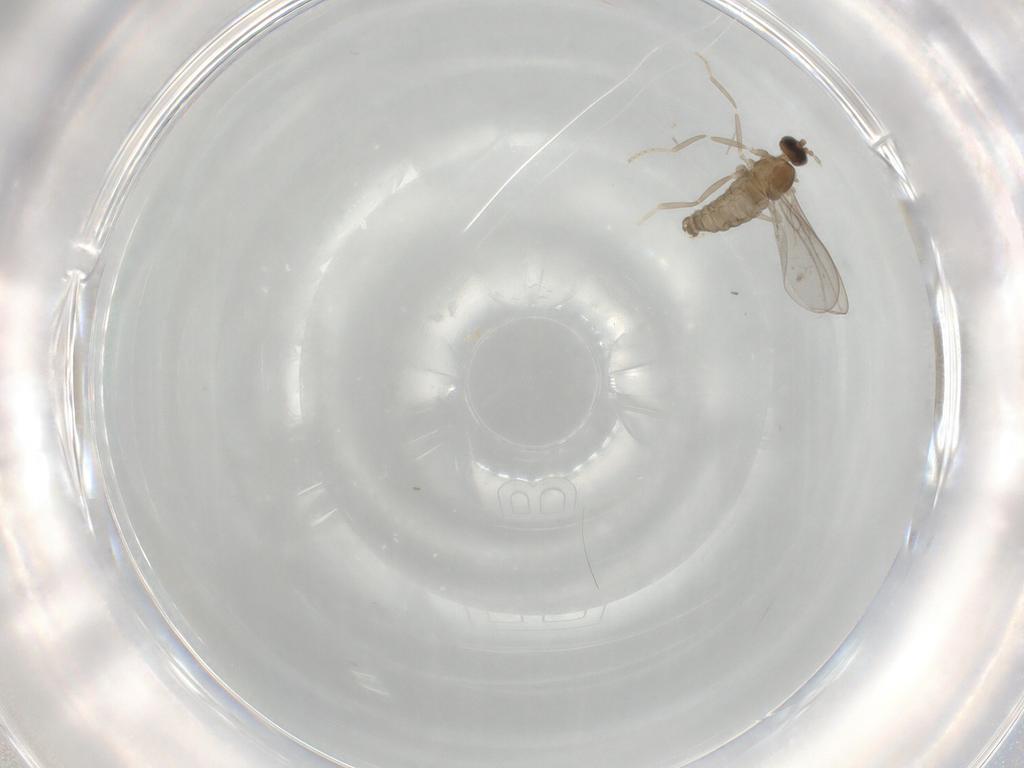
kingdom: Animalia
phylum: Arthropoda
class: Insecta
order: Diptera
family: Cecidomyiidae
